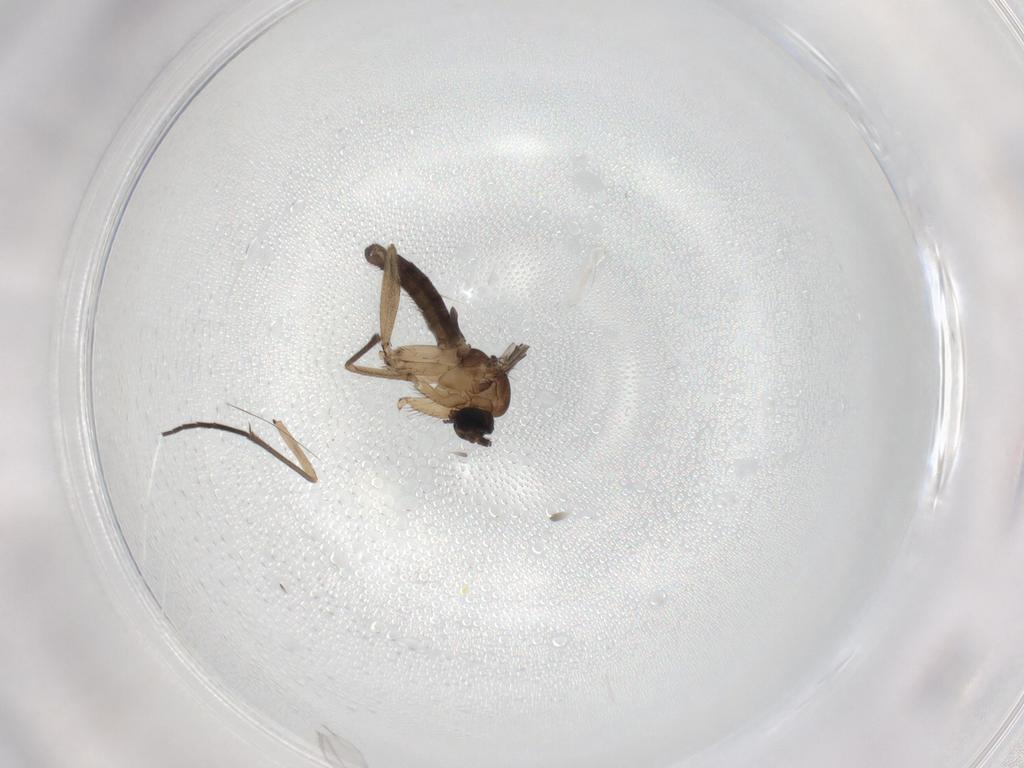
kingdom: Animalia
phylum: Arthropoda
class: Insecta
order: Diptera
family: Sciaridae
